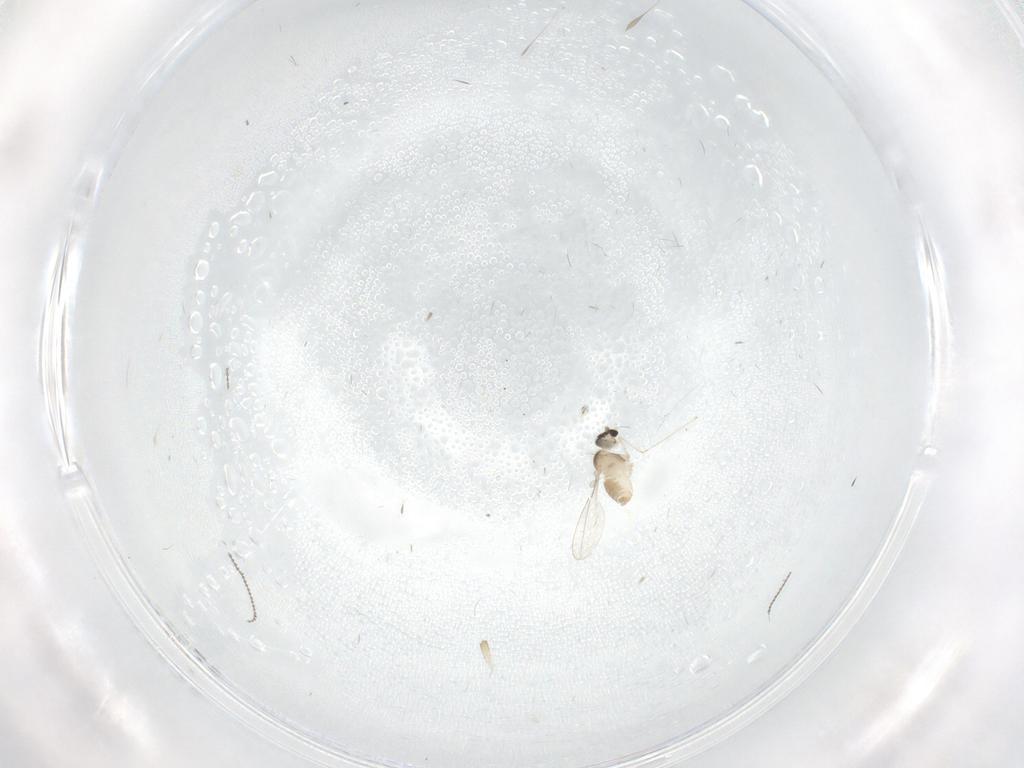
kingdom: Animalia
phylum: Arthropoda
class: Insecta
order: Diptera
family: Cecidomyiidae
